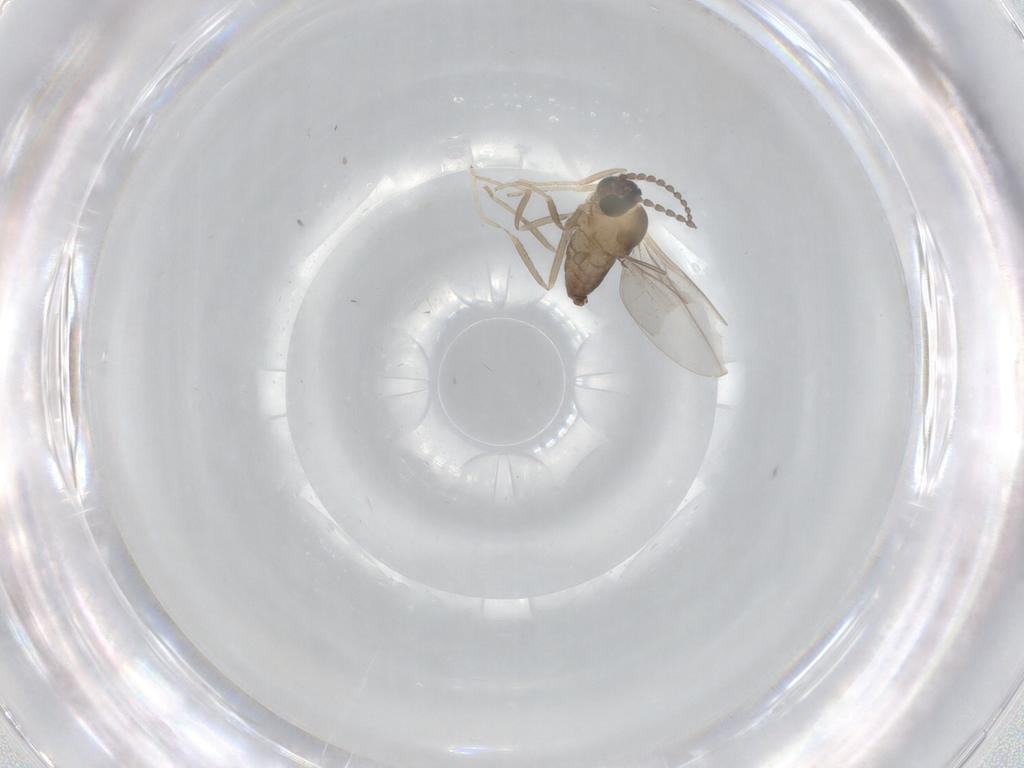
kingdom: Animalia
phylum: Arthropoda
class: Insecta
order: Diptera
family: Cecidomyiidae
